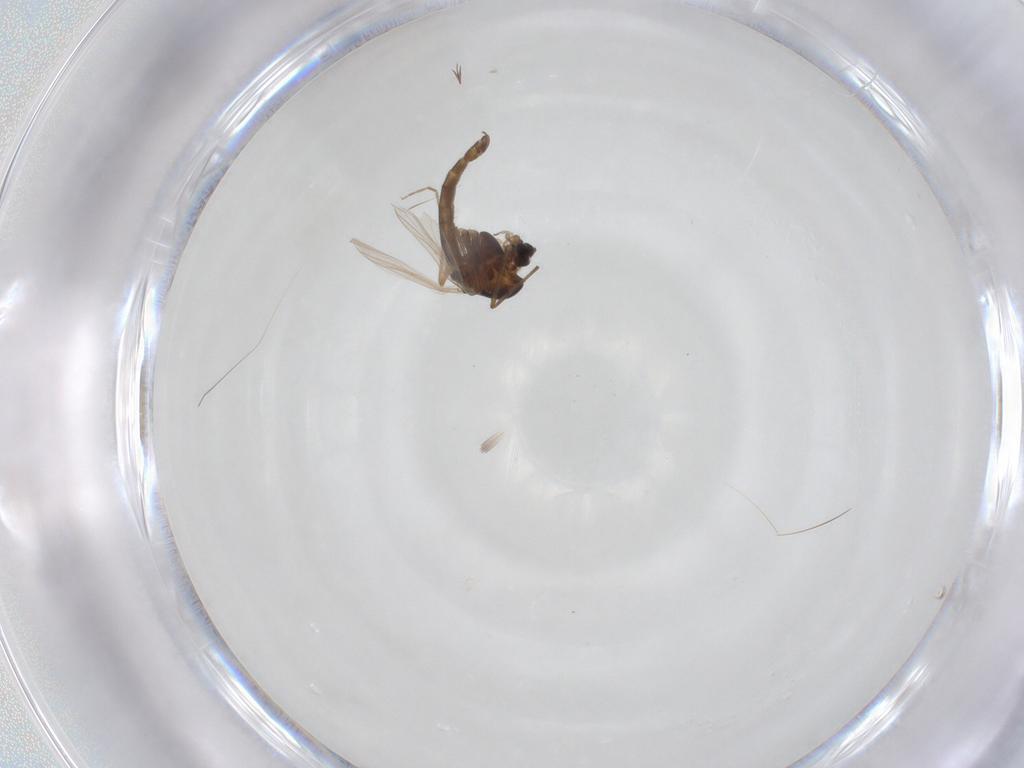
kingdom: Animalia
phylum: Arthropoda
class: Insecta
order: Diptera
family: Chironomidae
